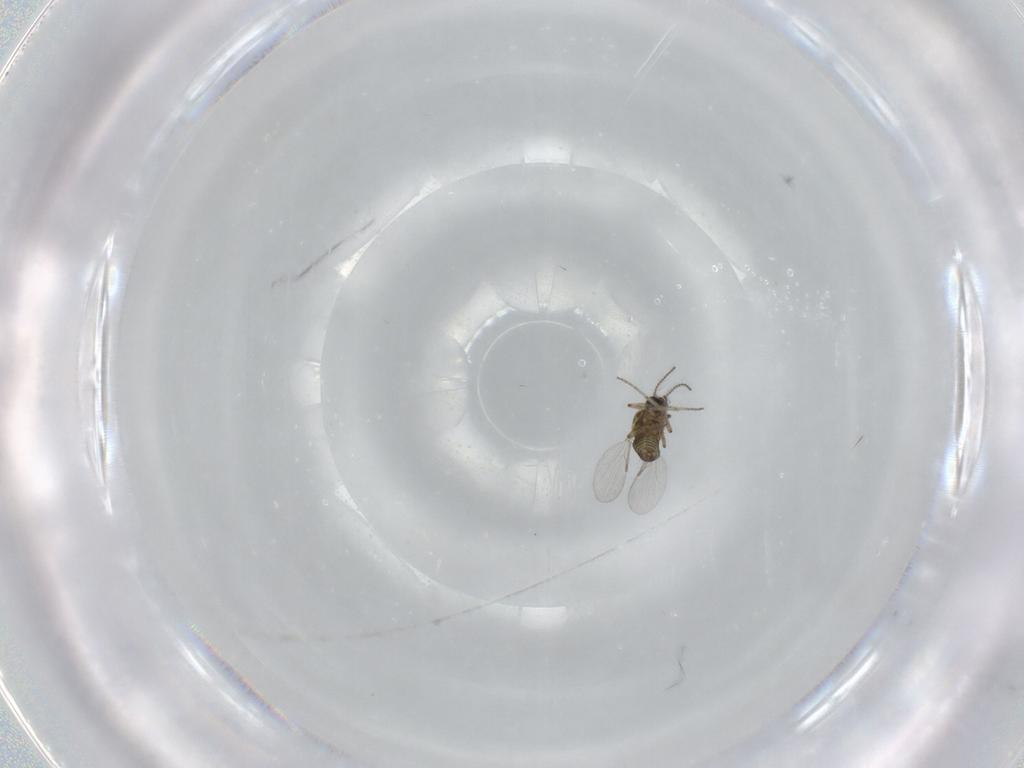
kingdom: Animalia
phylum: Arthropoda
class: Insecta
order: Diptera
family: Ceratopogonidae
